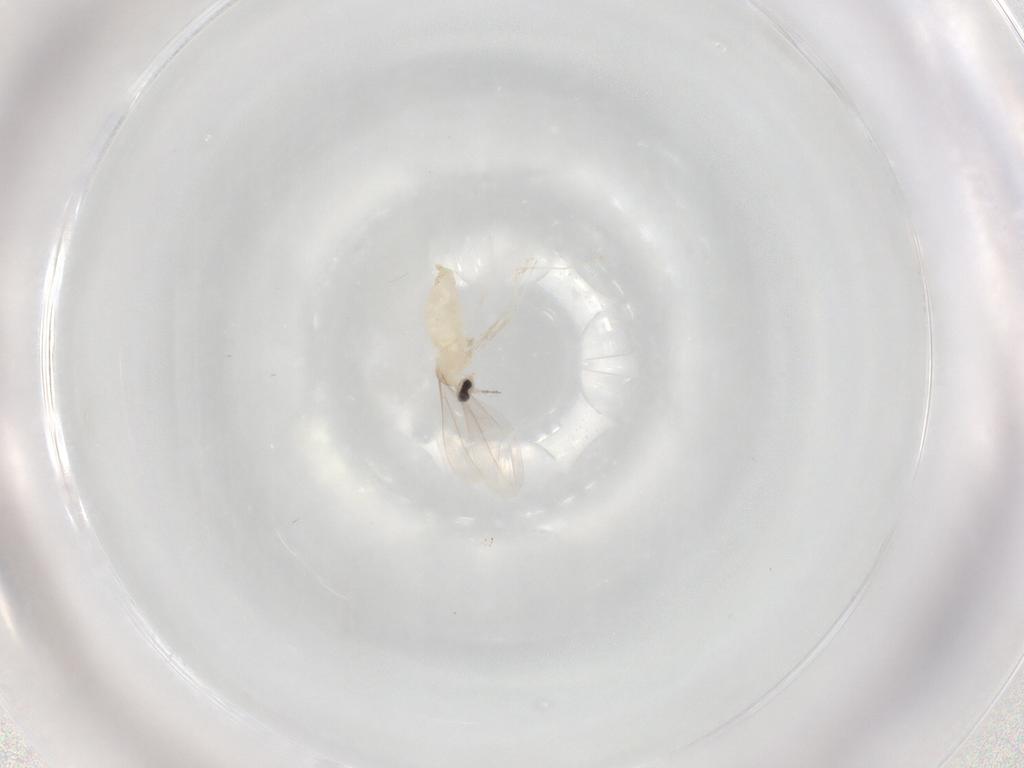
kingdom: Animalia
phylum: Arthropoda
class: Insecta
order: Diptera
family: Cecidomyiidae
